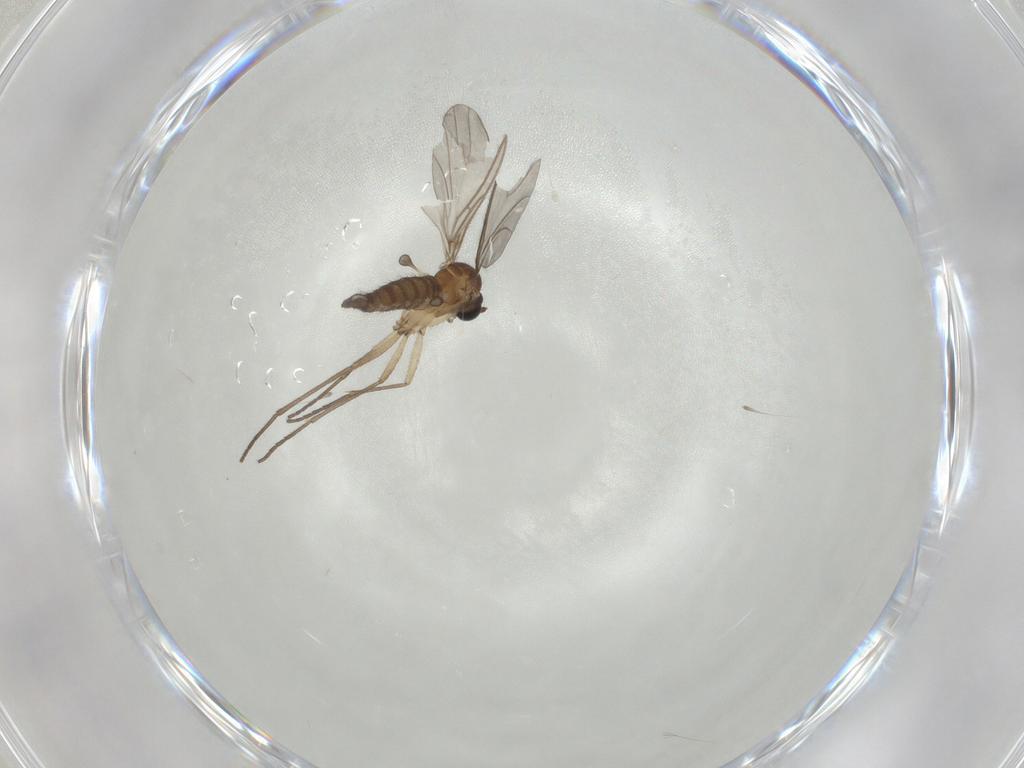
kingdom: Animalia
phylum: Arthropoda
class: Insecta
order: Diptera
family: Sciaridae
